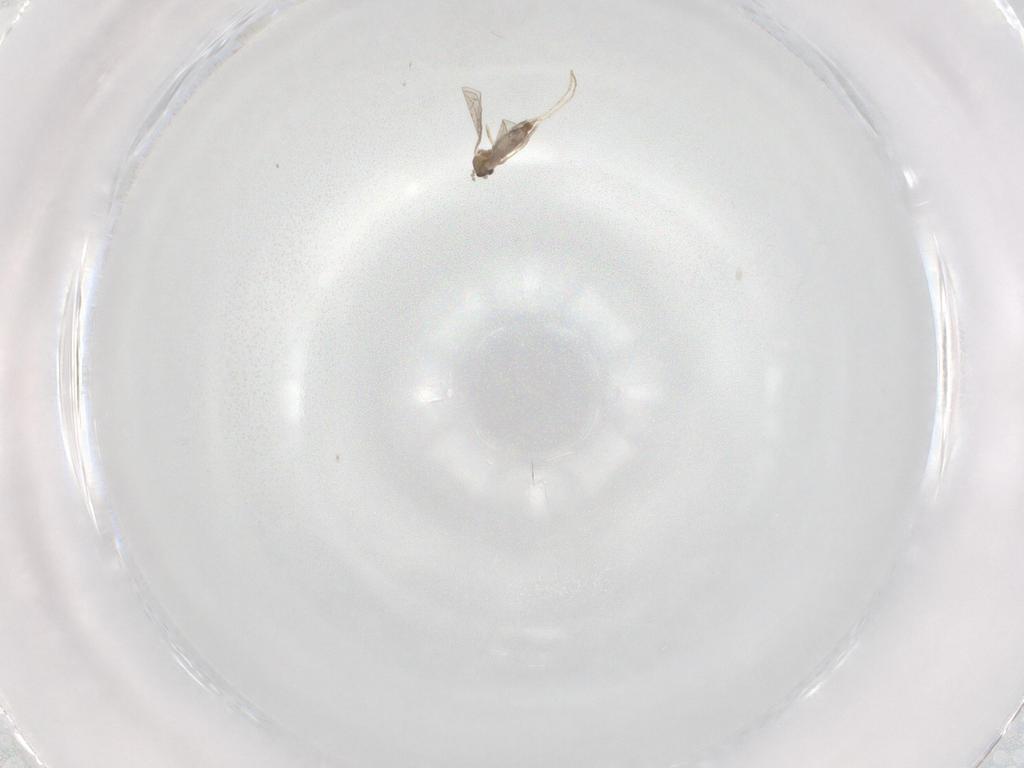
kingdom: Animalia
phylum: Arthropoda
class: Insecta
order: Diptera
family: Cecidomyiidae
